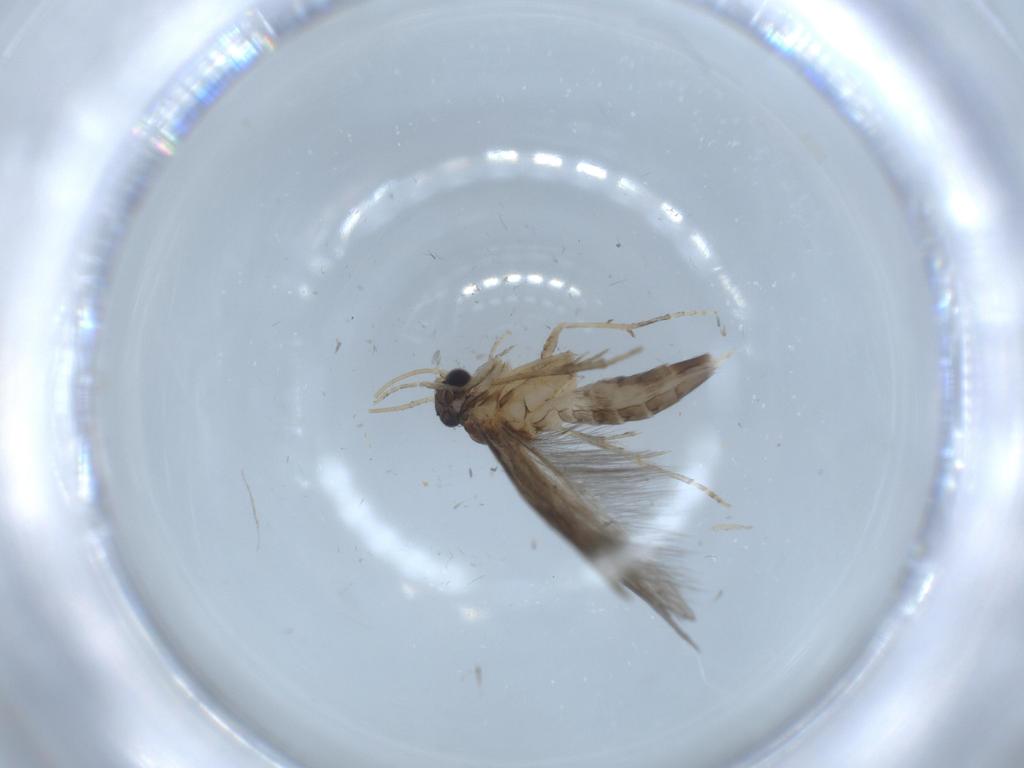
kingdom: Animalia
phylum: Arthropoda
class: Insecta
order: Trichoptera
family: Hydroptilidae
